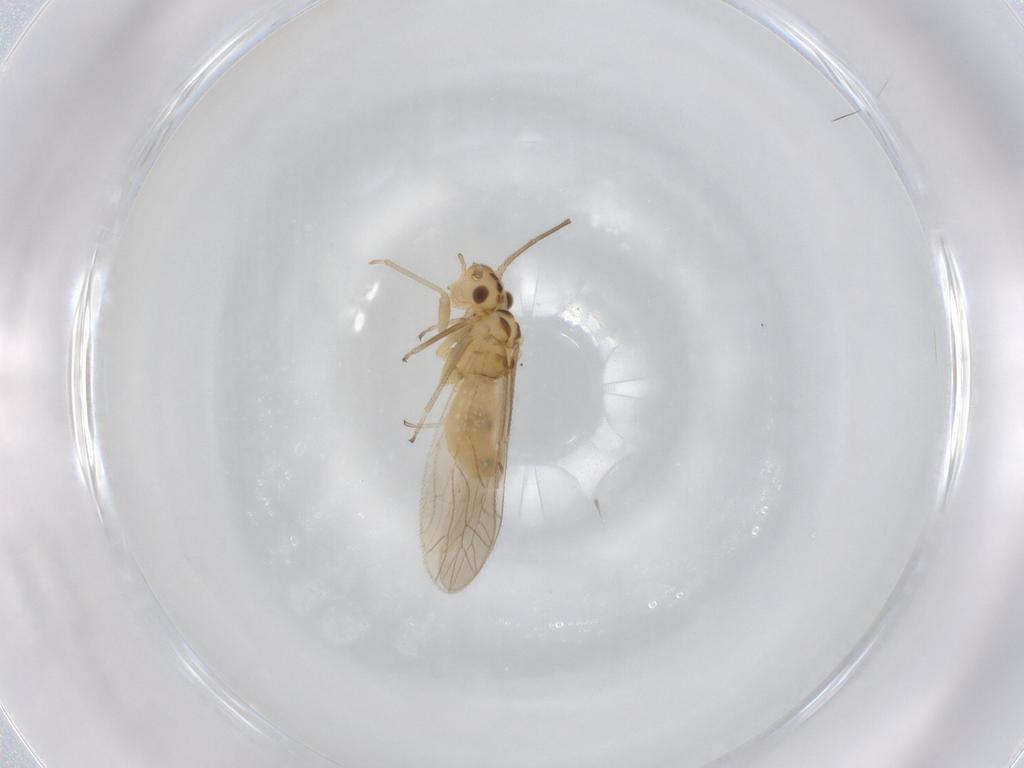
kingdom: Animalia
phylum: Arthropoda
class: Insecta
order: Psocodea
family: Caeciliusidae
